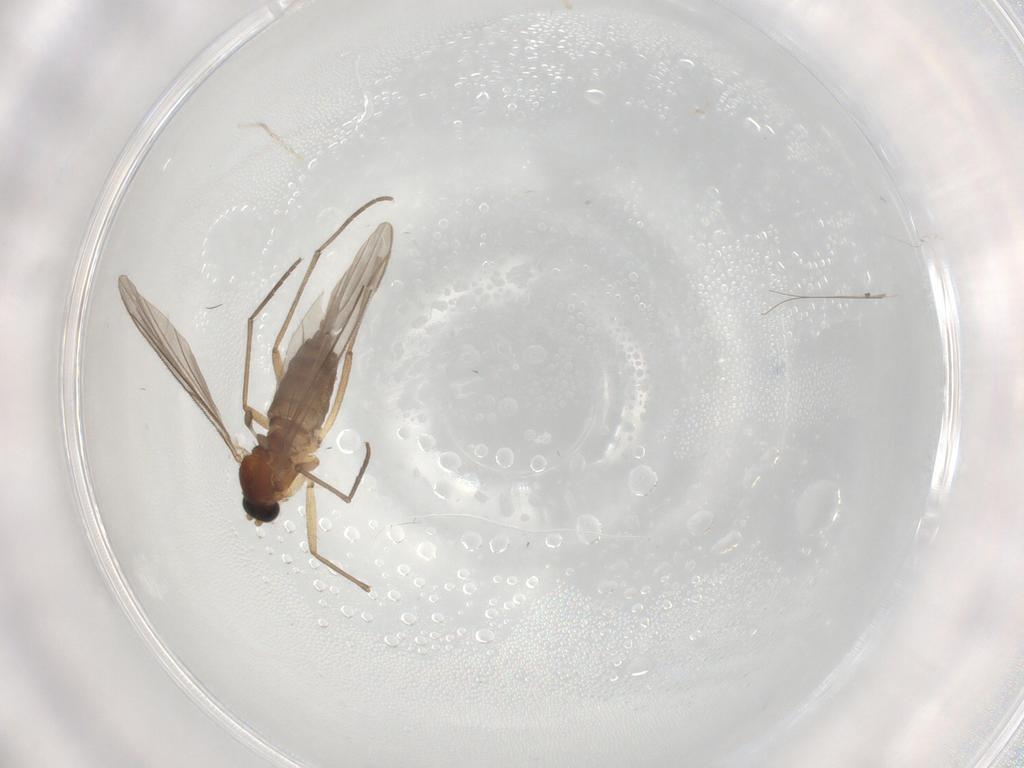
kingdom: Animalia
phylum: Arthropoda
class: Insecta
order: Diptera
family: Sciaridae
